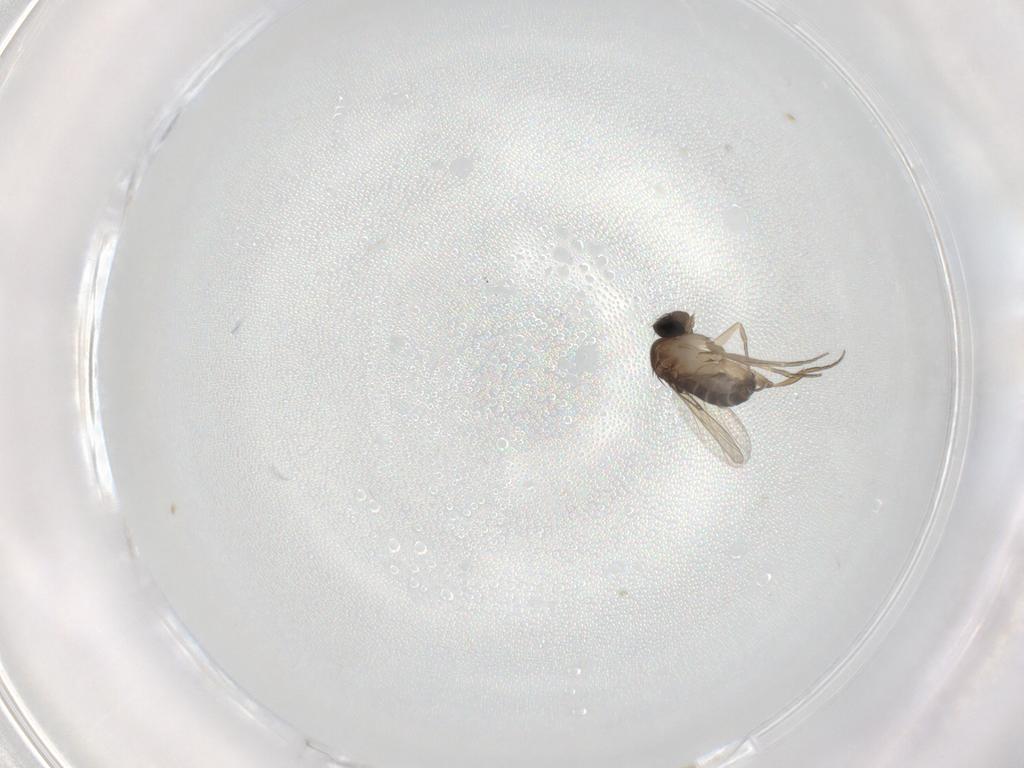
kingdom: Animalia
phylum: Arthropoda
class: Insecta
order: Diptera
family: Phoridae
